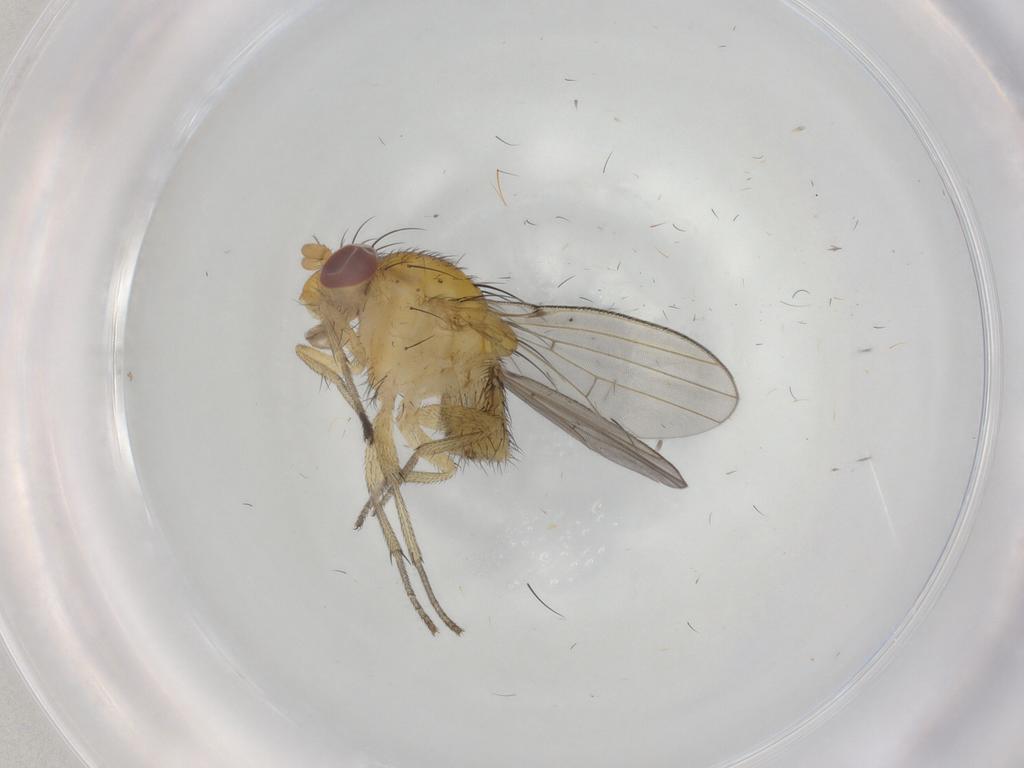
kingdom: Animalia
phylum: Arthropoda
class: Insecta
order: Diptera
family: Lauxaniidae
